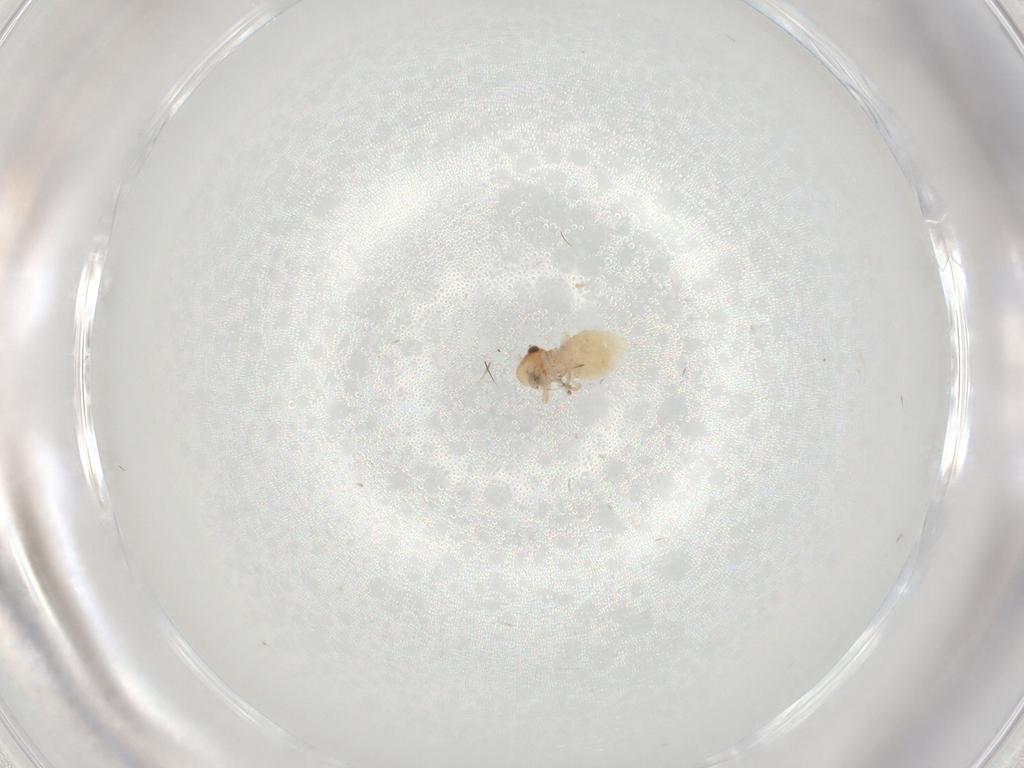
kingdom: Animalia
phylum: Arthropoda
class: Insecta
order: Psocodea
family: Caeciliusidae
